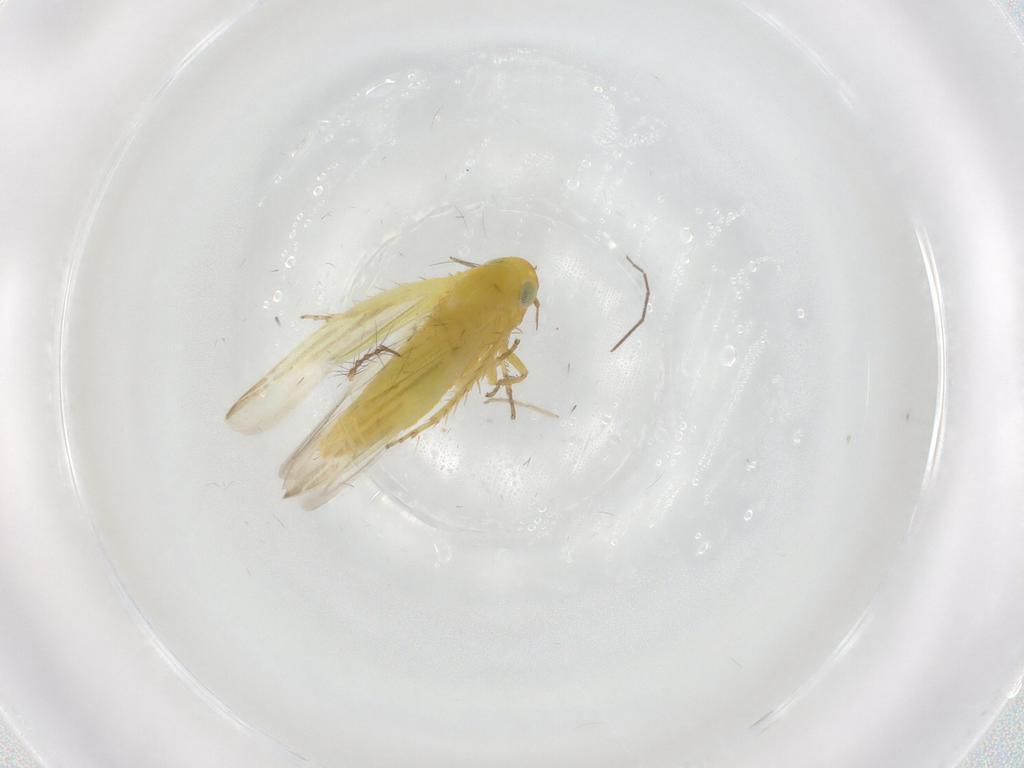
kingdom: Animalia
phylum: Arthropoda
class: Insecta
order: Hemiptera
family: Cicadellidae
